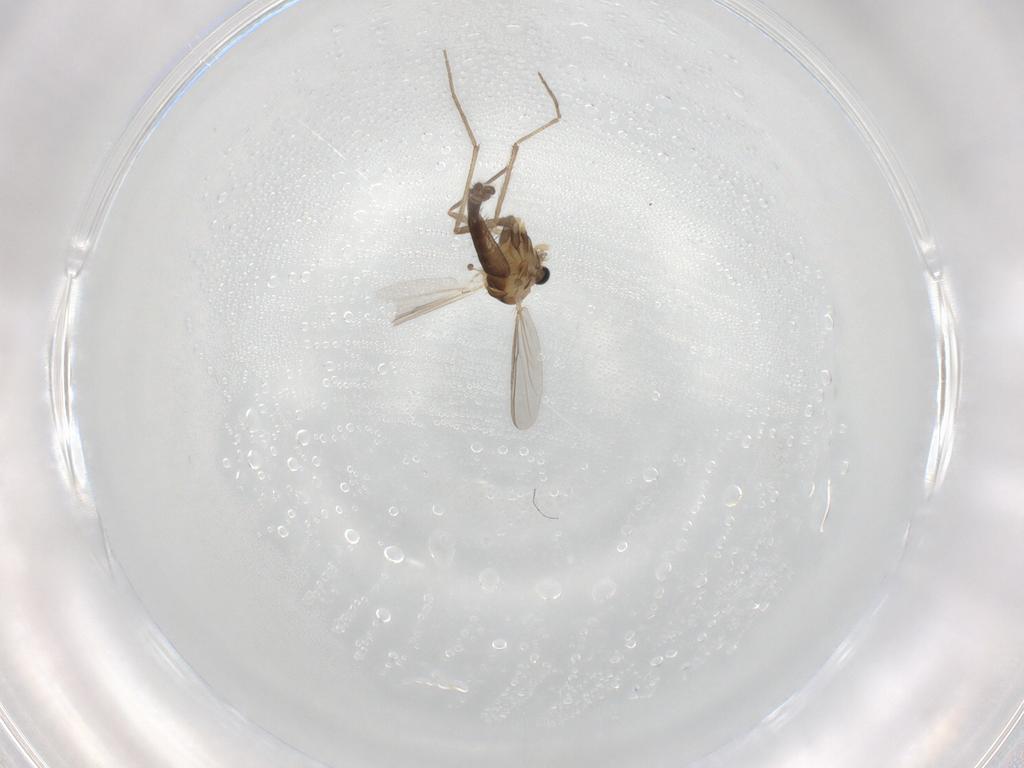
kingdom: Animalia
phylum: Arthropoda
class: Insecta
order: Diptera
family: Chironomidae
